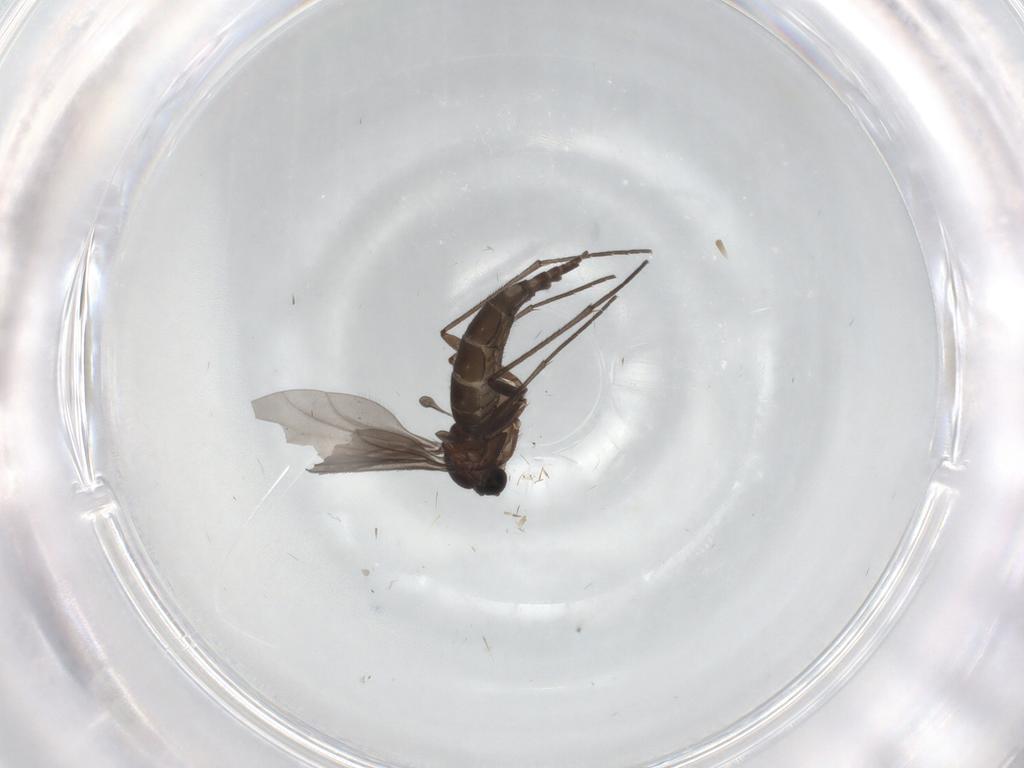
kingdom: Animalia
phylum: Arthropoda
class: Insecta
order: Diptera
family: Sciaridae
